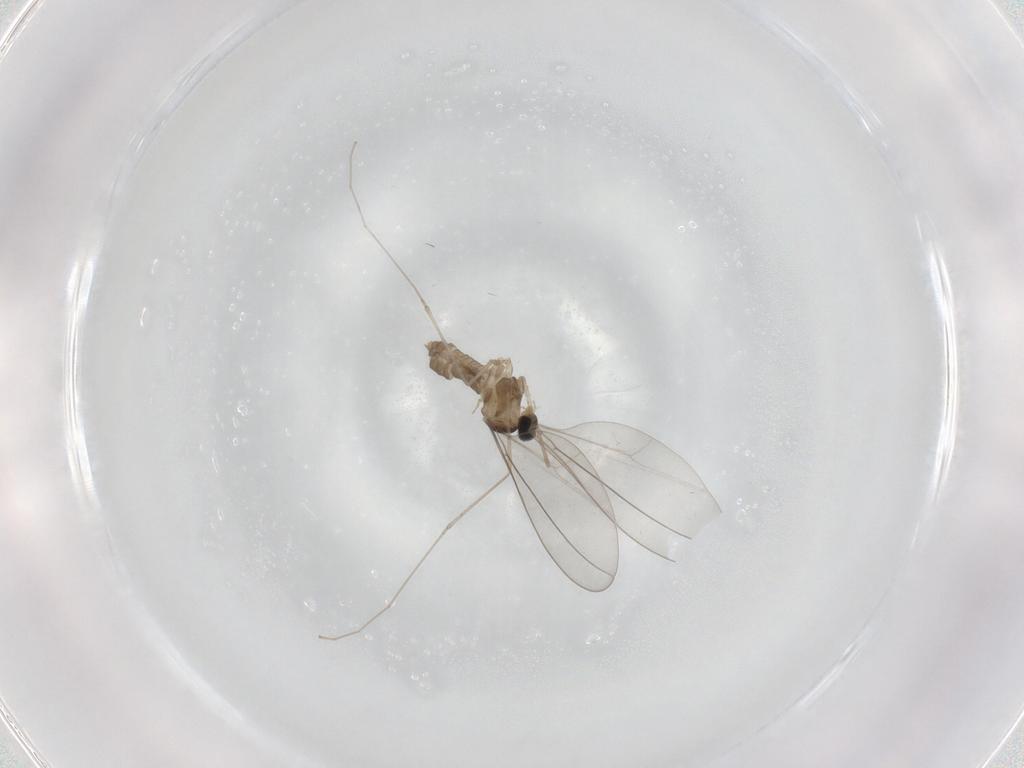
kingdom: Animalia
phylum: Arthropoda
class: Insecta
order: Diptera
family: Cecidomyiidae
